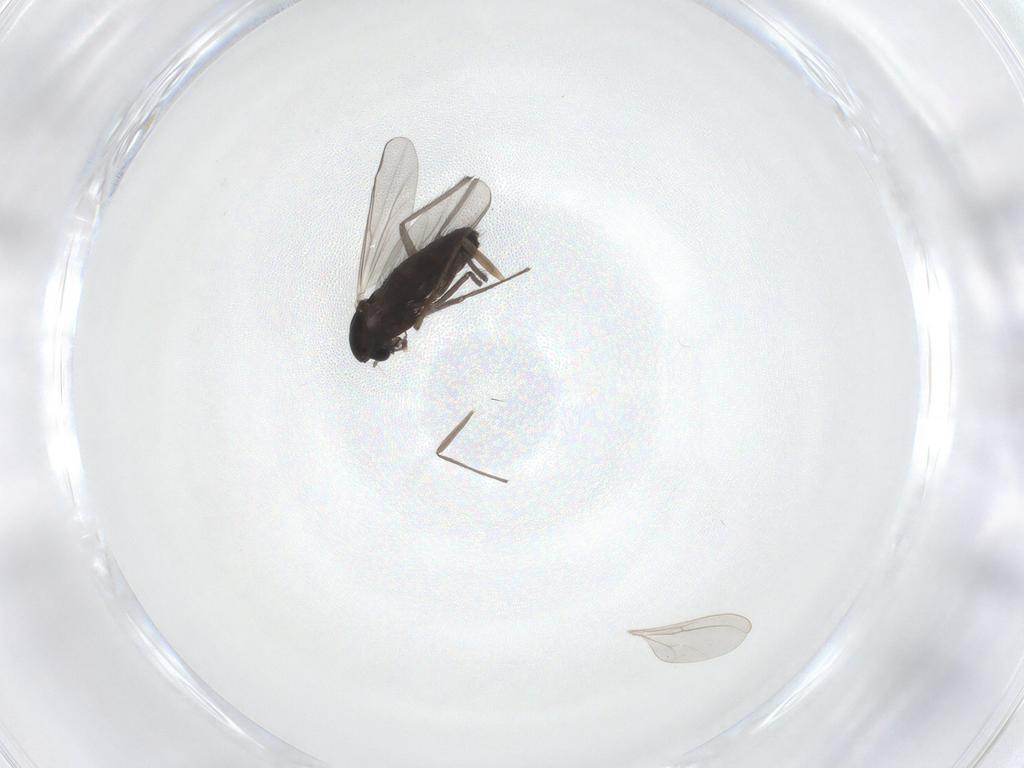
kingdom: Animalia
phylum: Arthropoda
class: Insecta
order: Diptera
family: Chironomidae
